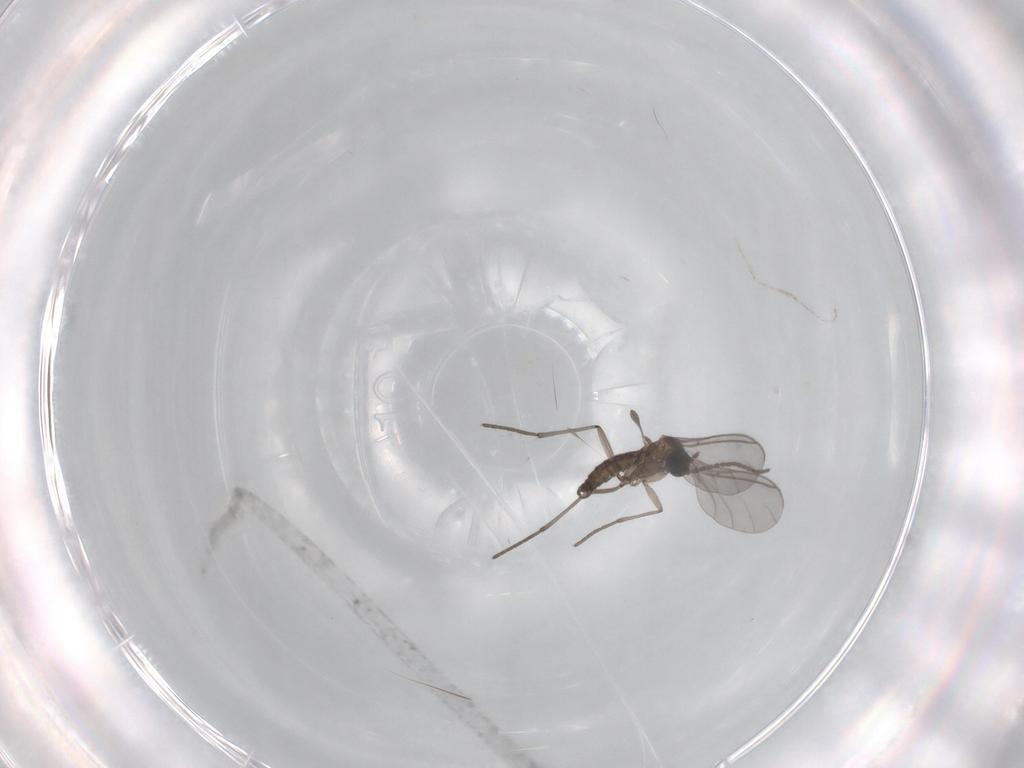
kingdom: Animalia
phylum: Arthropoda
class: Insecta
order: Diptera
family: Sciaridae
